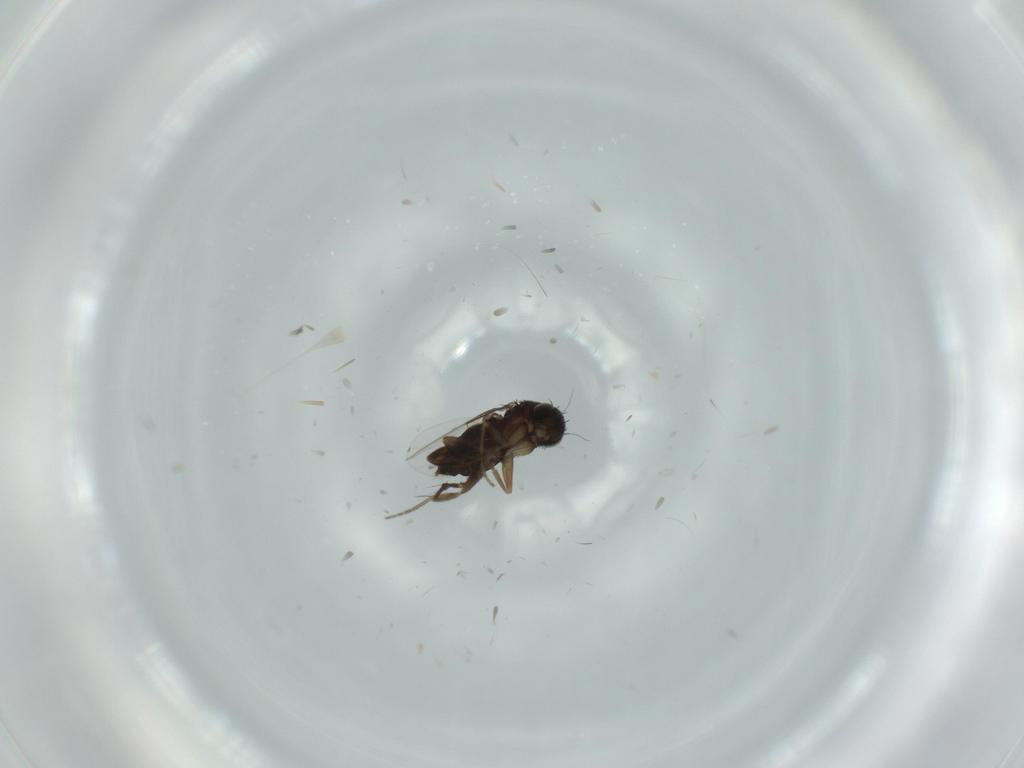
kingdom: Animalia
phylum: Arthropoda
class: Insecta
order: Diptera
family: Phoridae
